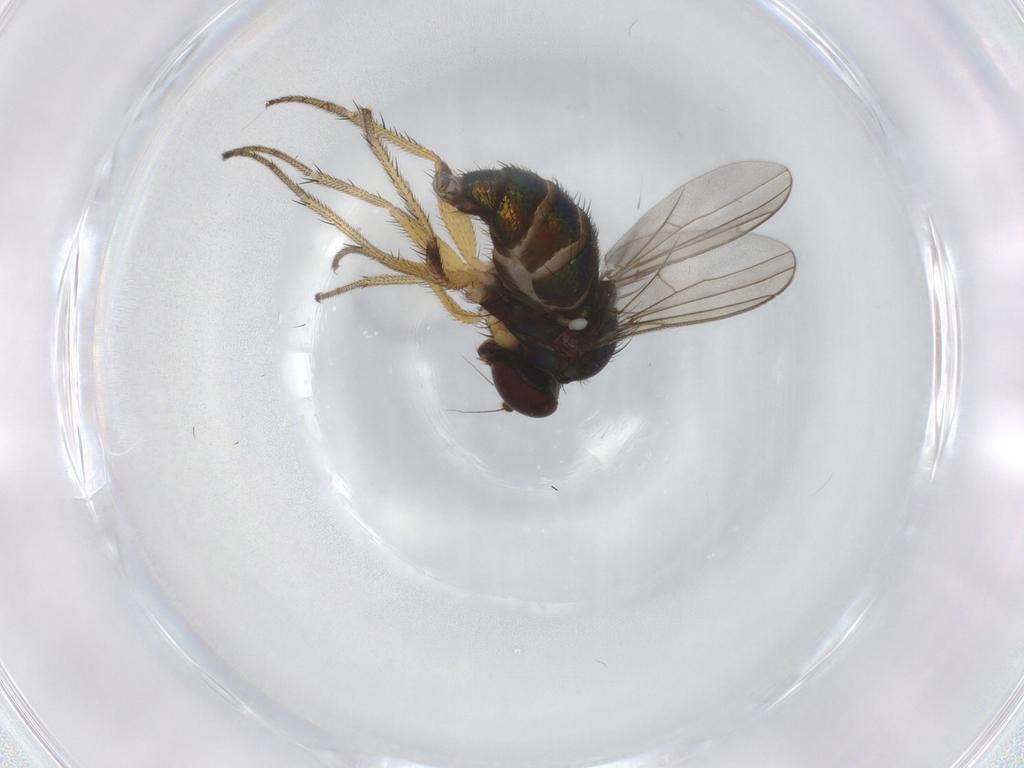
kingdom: Animalia
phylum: Arthropoda
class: Insecta
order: Diptera
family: Dolichopodidae
